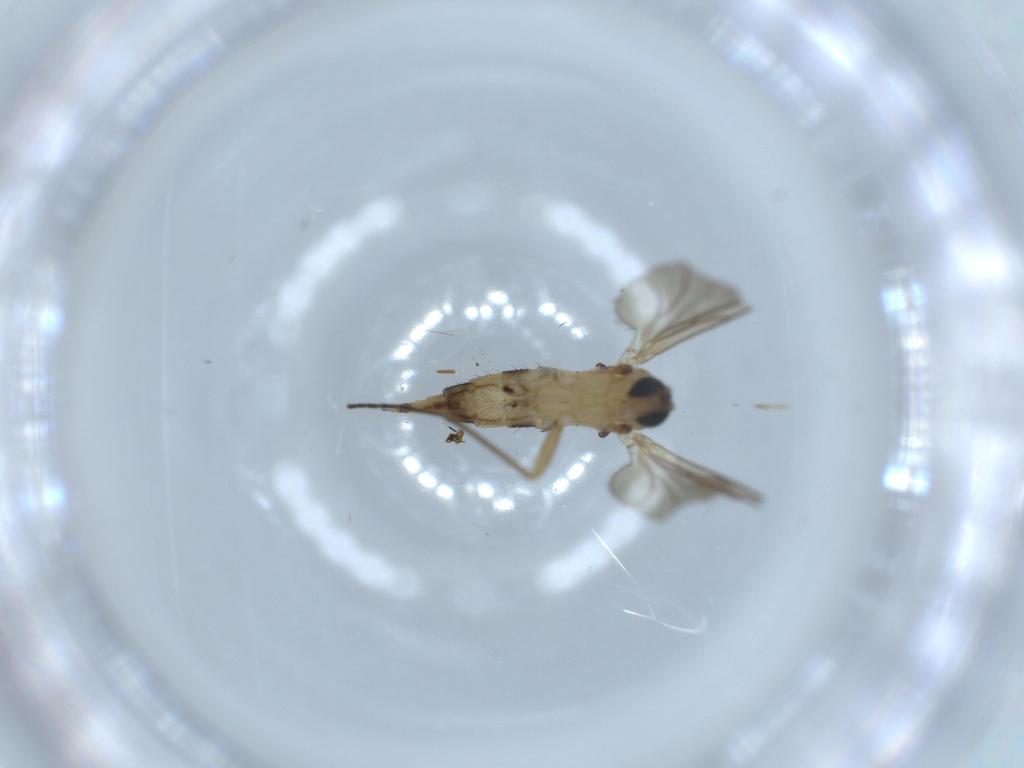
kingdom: Animalia
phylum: Arthropoda
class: Insecta
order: Diptera
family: Sciaridae
